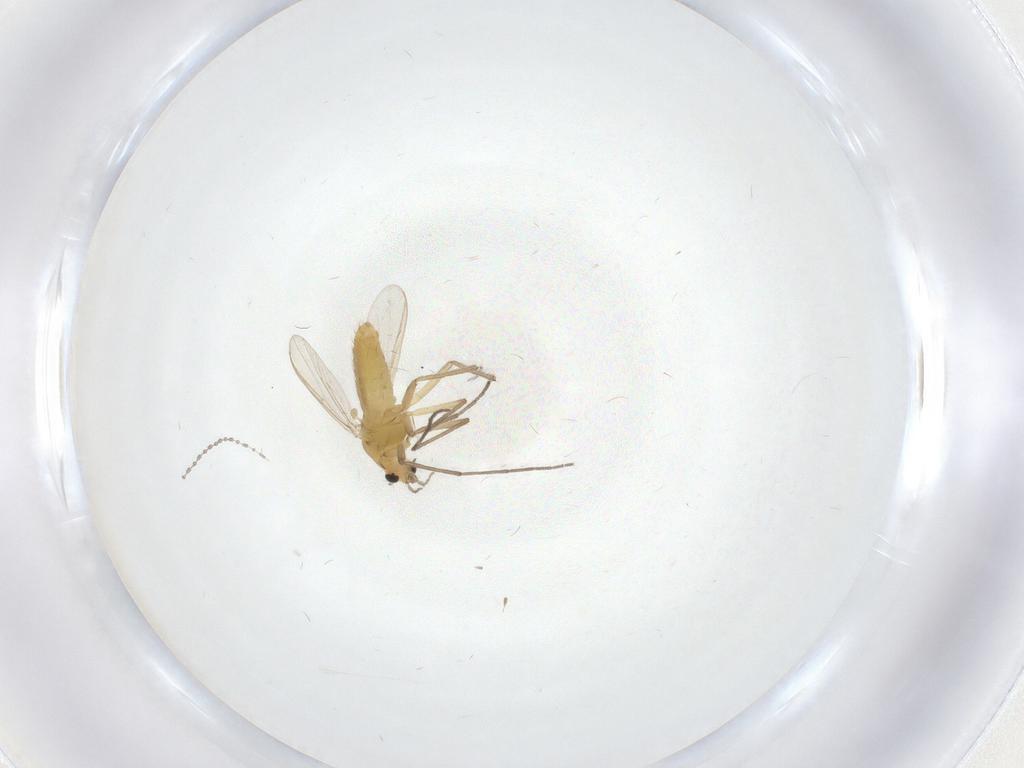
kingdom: Animalia
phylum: Arthropoda
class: Insecta
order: Diptera
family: Chironomidae
